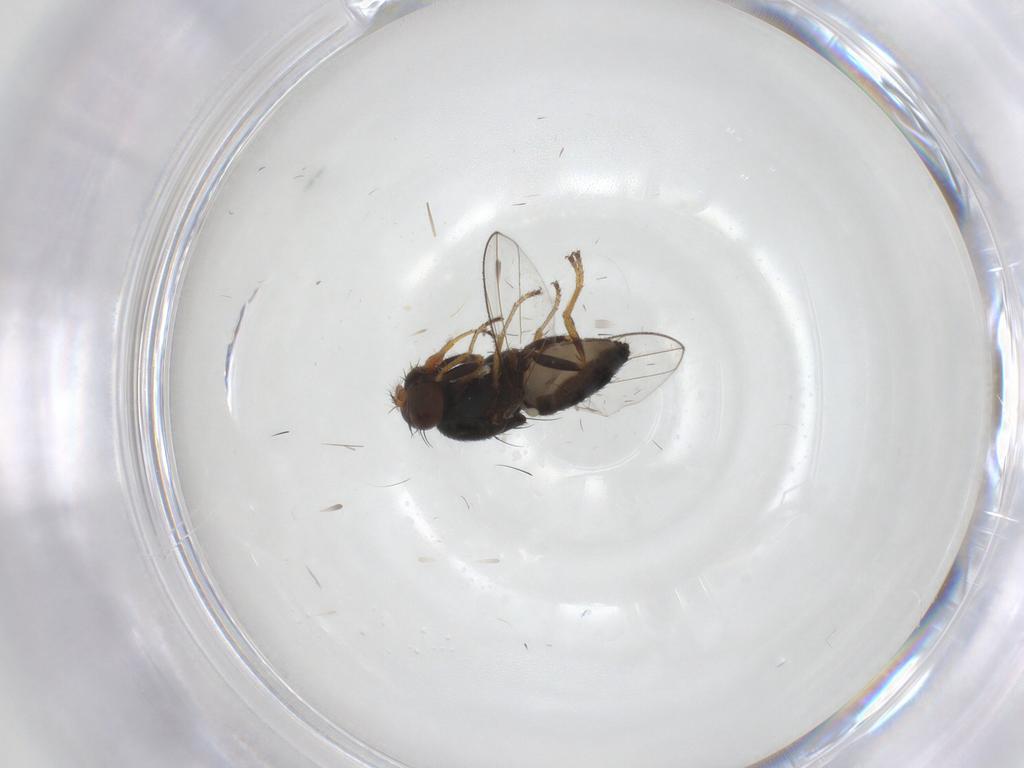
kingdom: Animalia
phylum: Arthropoda
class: Insecta
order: Diptera
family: Ephydridae
